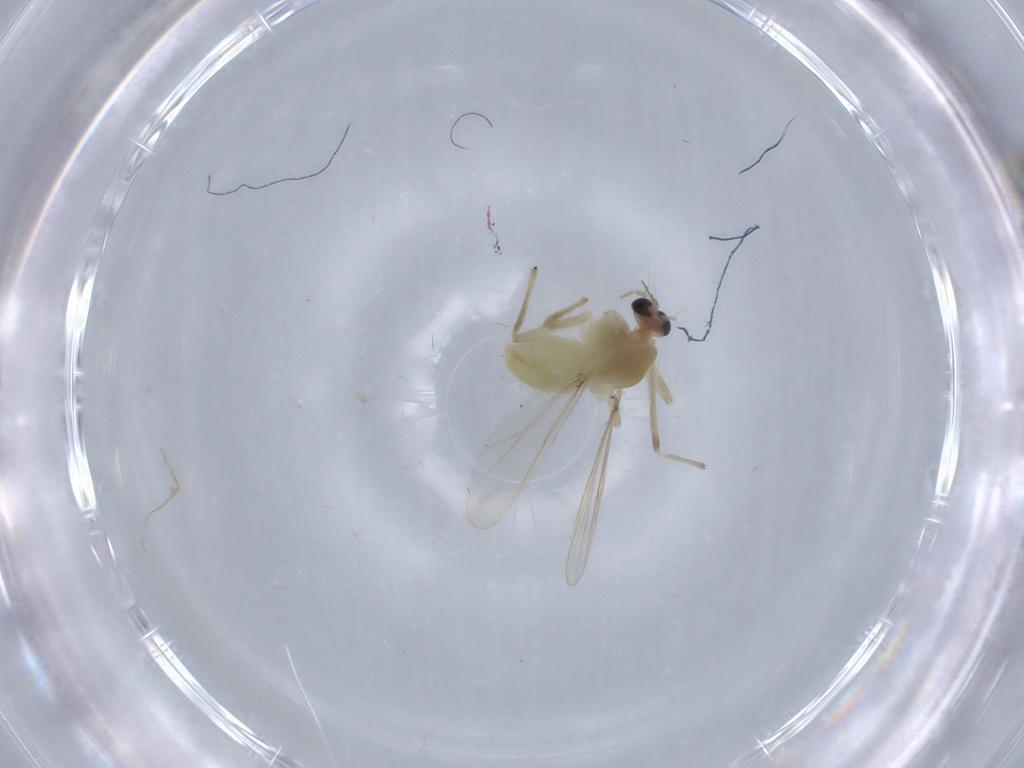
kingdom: Animalia
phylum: Arthropoda
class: Insecta
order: Diptera
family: Chironomidae
